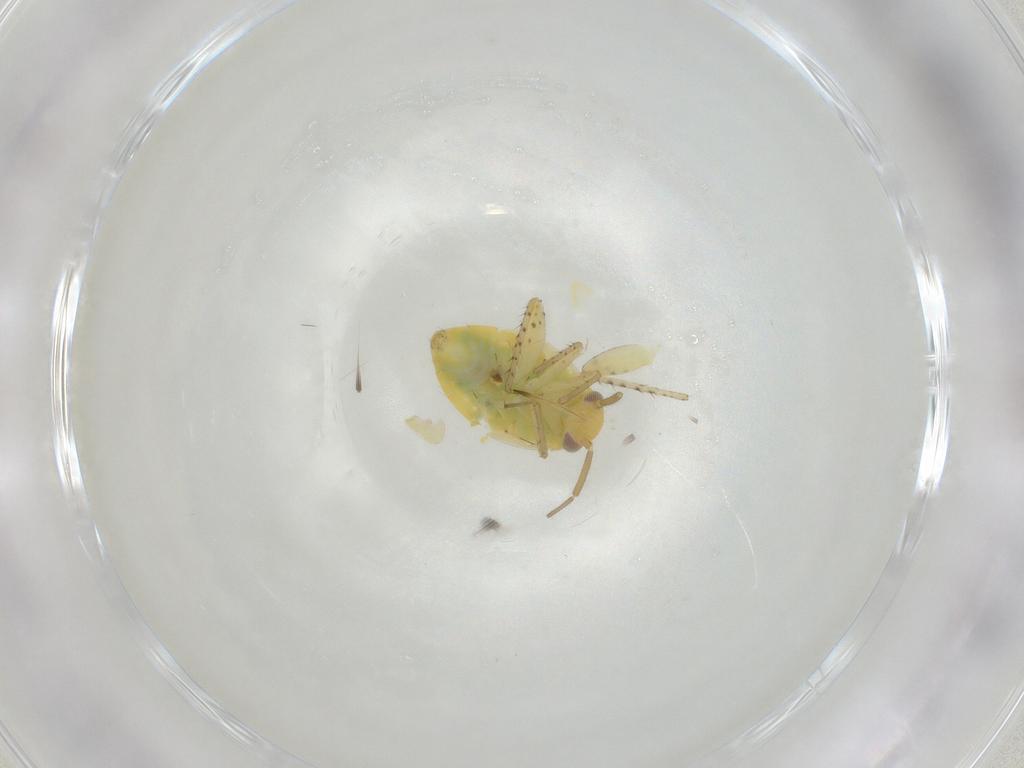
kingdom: Animalia
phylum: Arthropoda
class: Insecta
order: Hemiptera
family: Miridae
